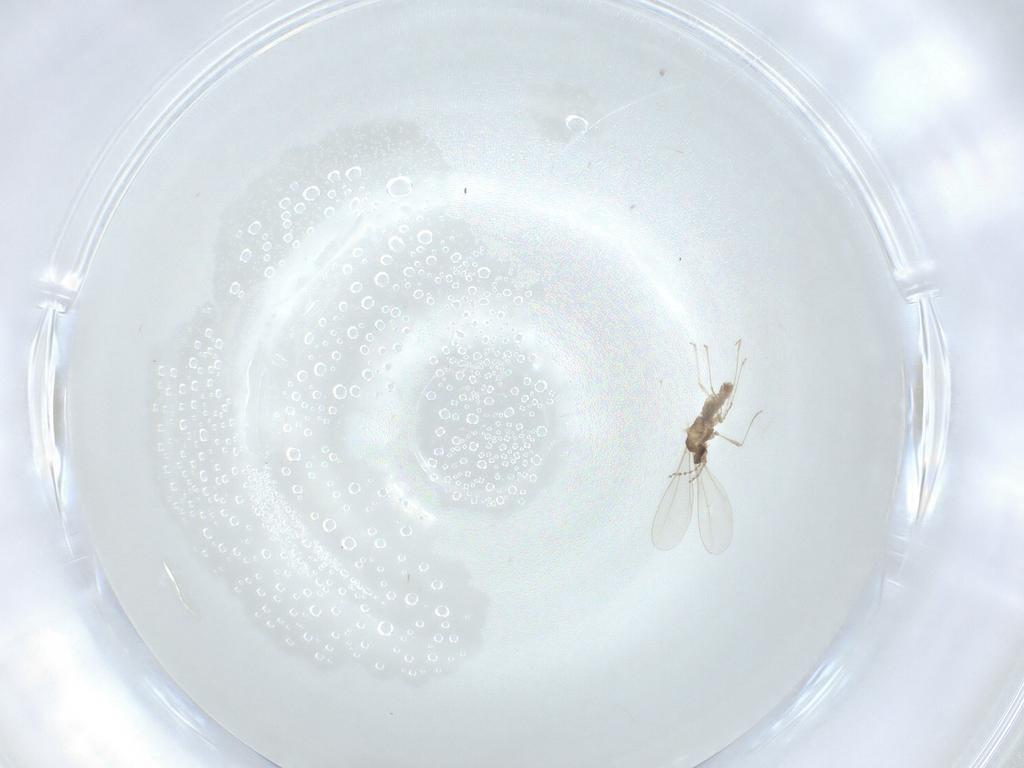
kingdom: Animalia
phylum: Arthropoda
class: Insecta
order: Diptera
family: Cecidomyiidae
